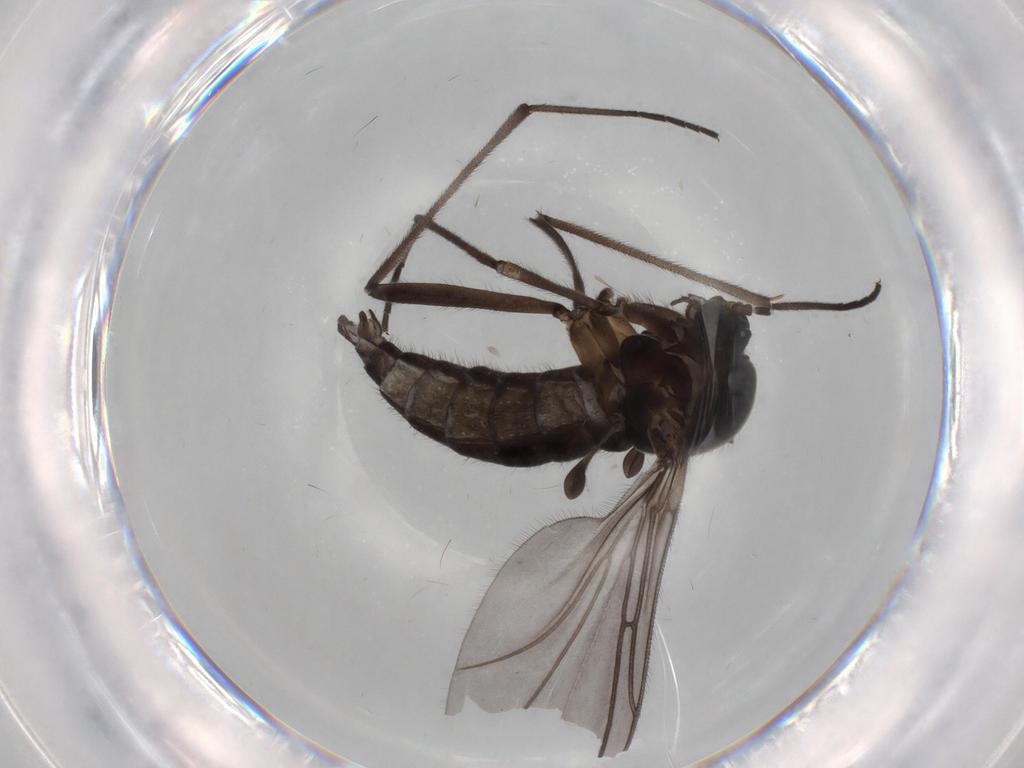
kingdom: Animalia
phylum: Arthropoda
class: Insecta
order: Diptera
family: Sciaridae
